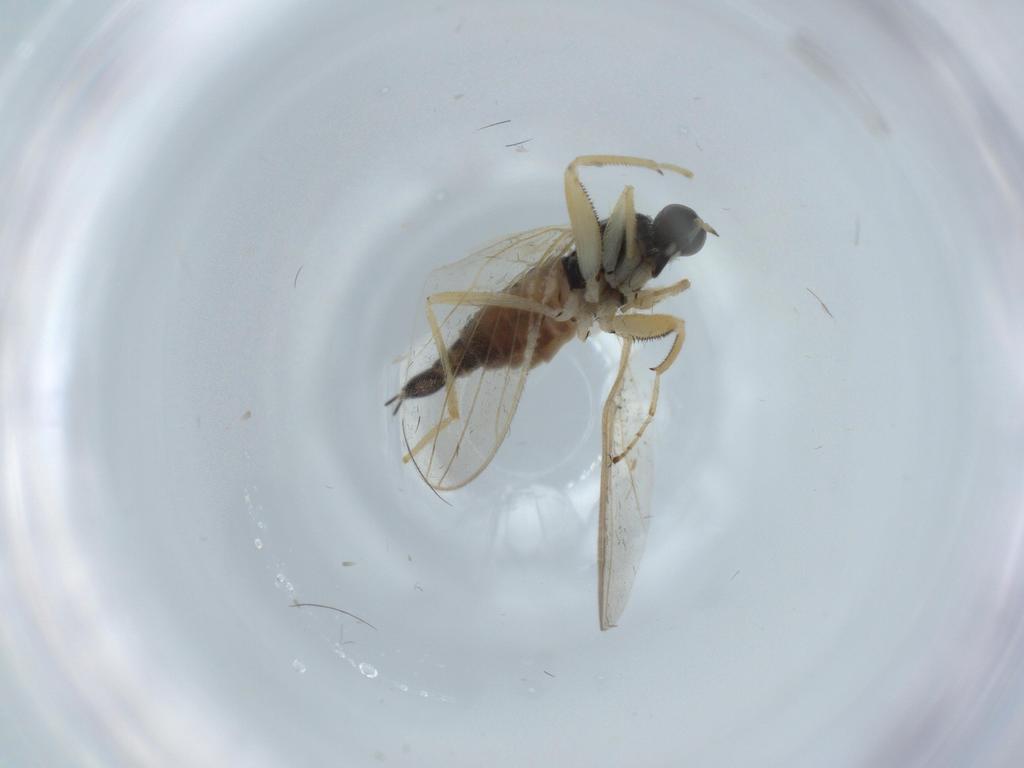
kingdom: Animalia
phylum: Arthropoda
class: Insecta
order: Diptera
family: Hybotidae
